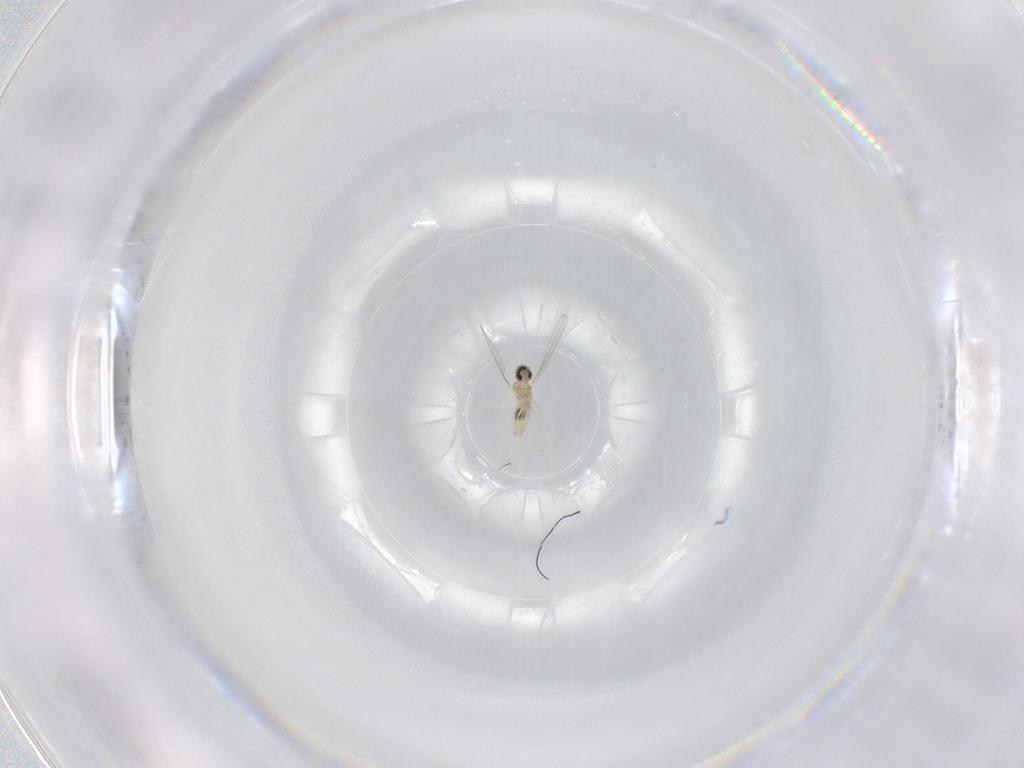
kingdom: Animalia
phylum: Arthropoda
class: Insecta
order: Diptera
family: Cecidomyiidae
